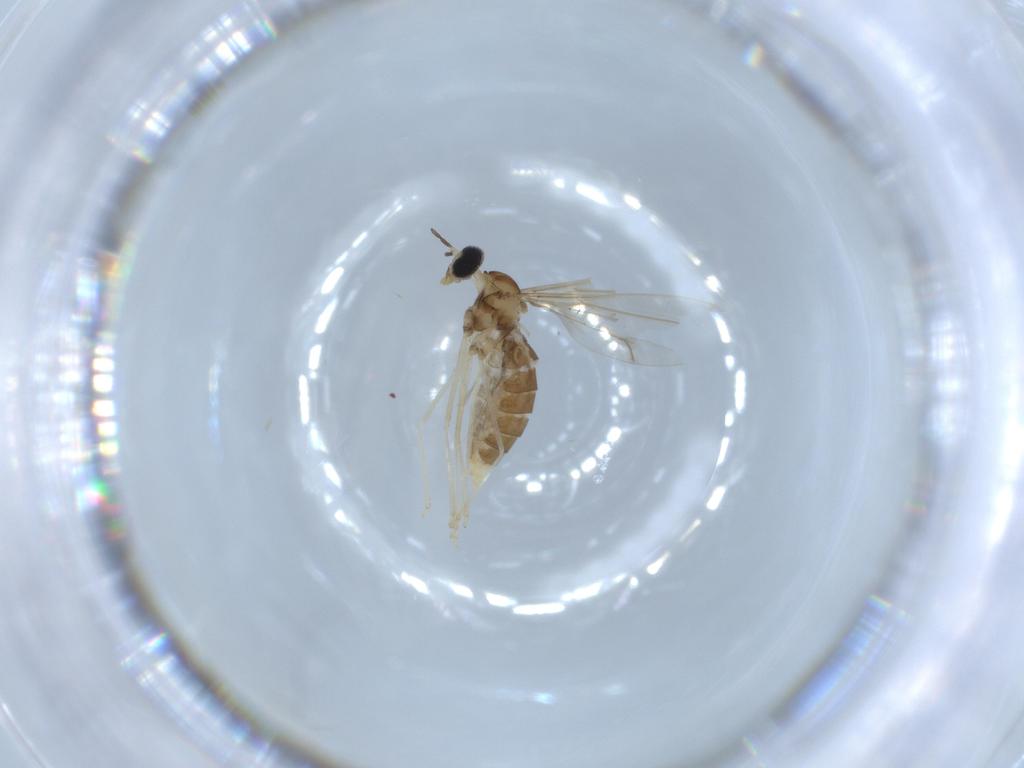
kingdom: Animalia
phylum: Arthropoda
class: Insecta
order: Diptera
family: Cecidomyiidae
